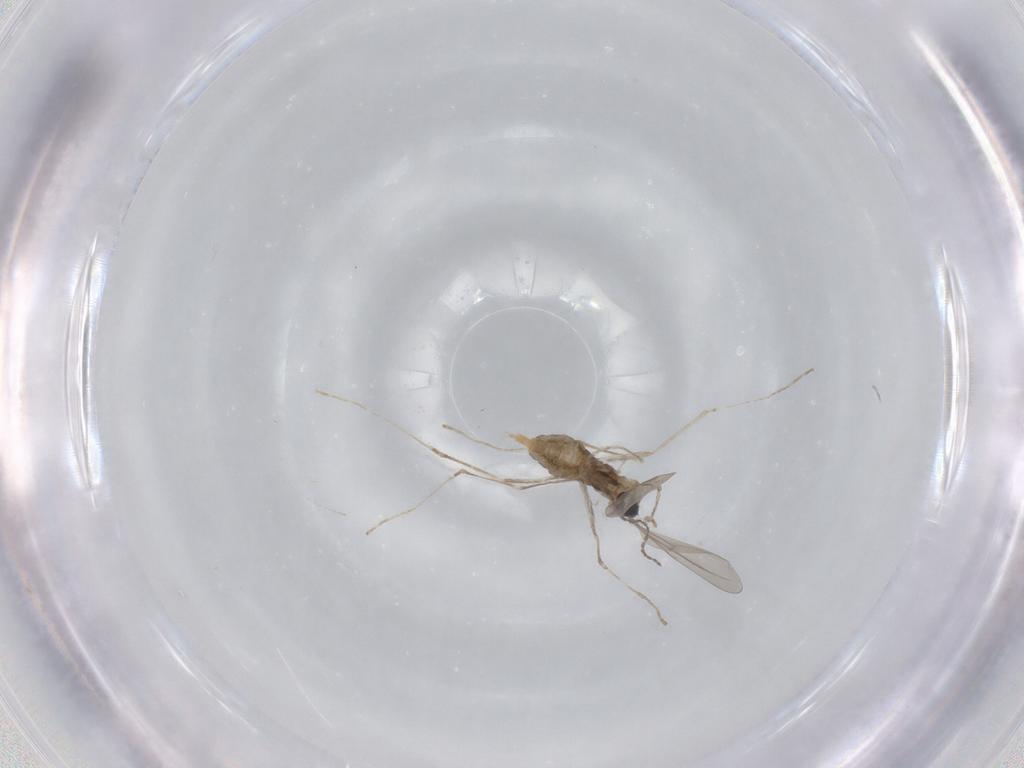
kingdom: Animalia
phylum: Arthropoda
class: Insecta
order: Diptera
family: Cecidomyiidae
